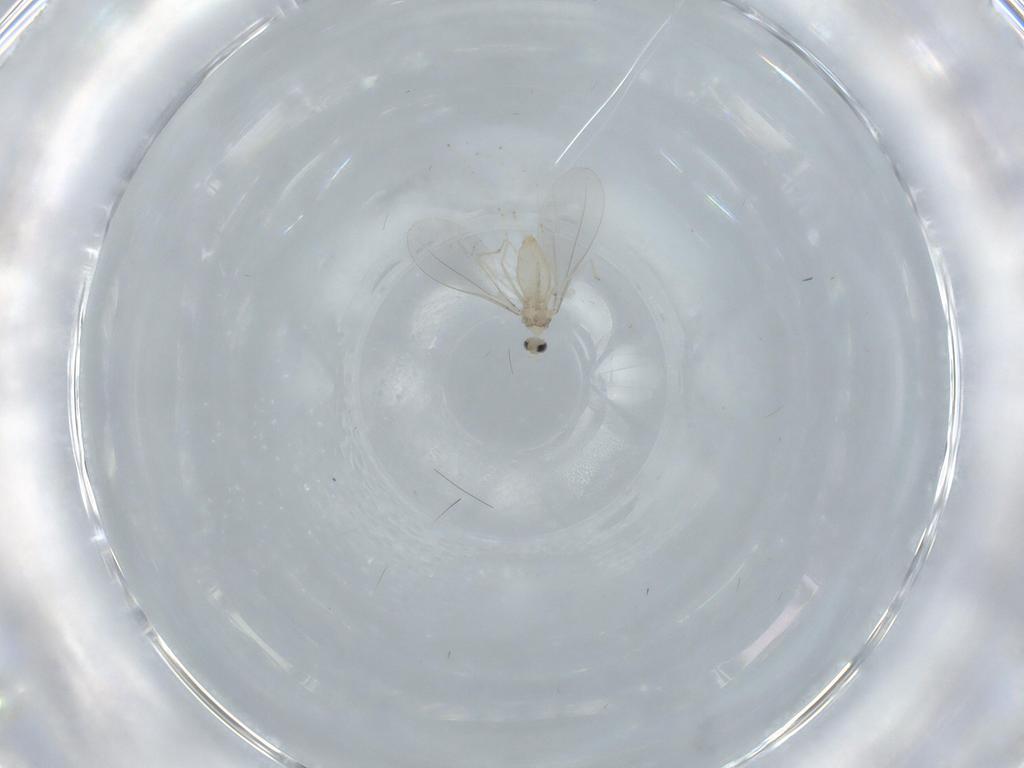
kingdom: Animalia
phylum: Arthropoda
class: Insecta
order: Diptera
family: Cecidomyiidae
